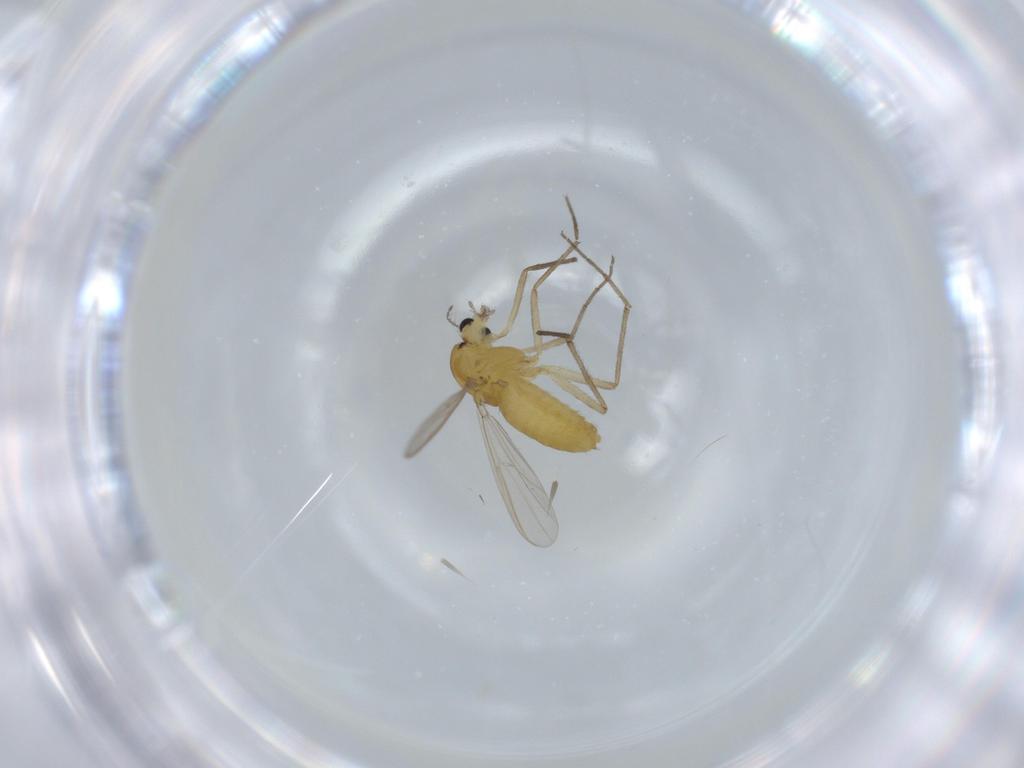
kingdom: Animalia
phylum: Arthropoda
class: Insecta
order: Diptera
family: Chironomidae
